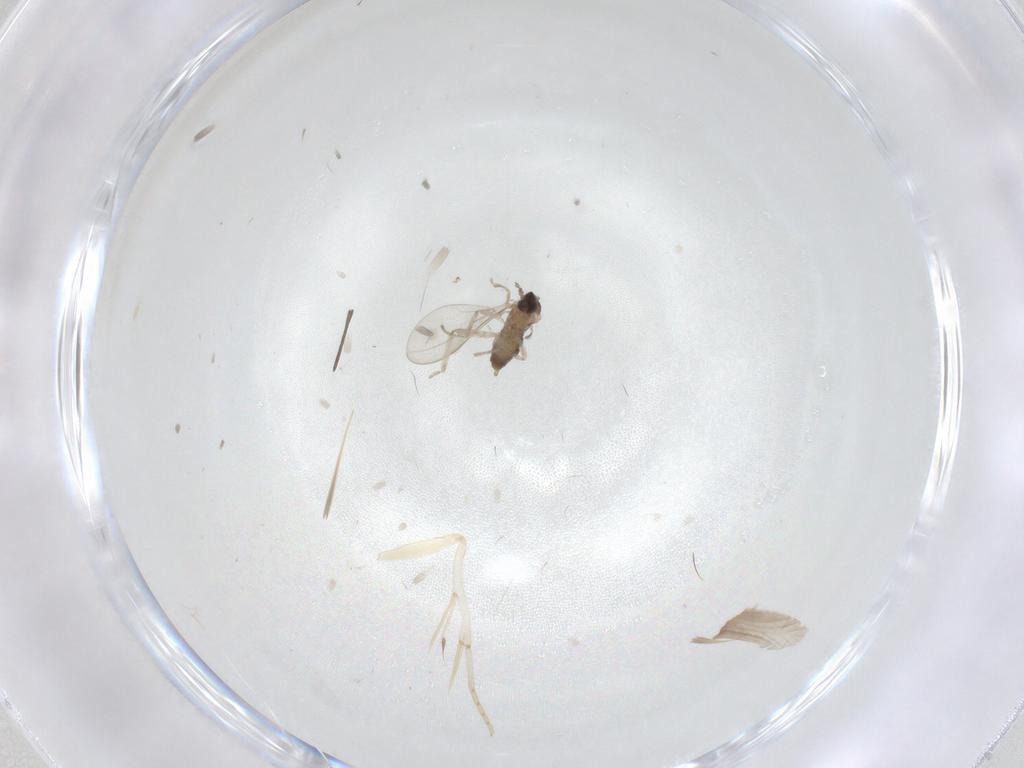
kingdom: Animalia
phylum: Arthropoda
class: Insecta
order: Diptera
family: Cecidomyiidae
